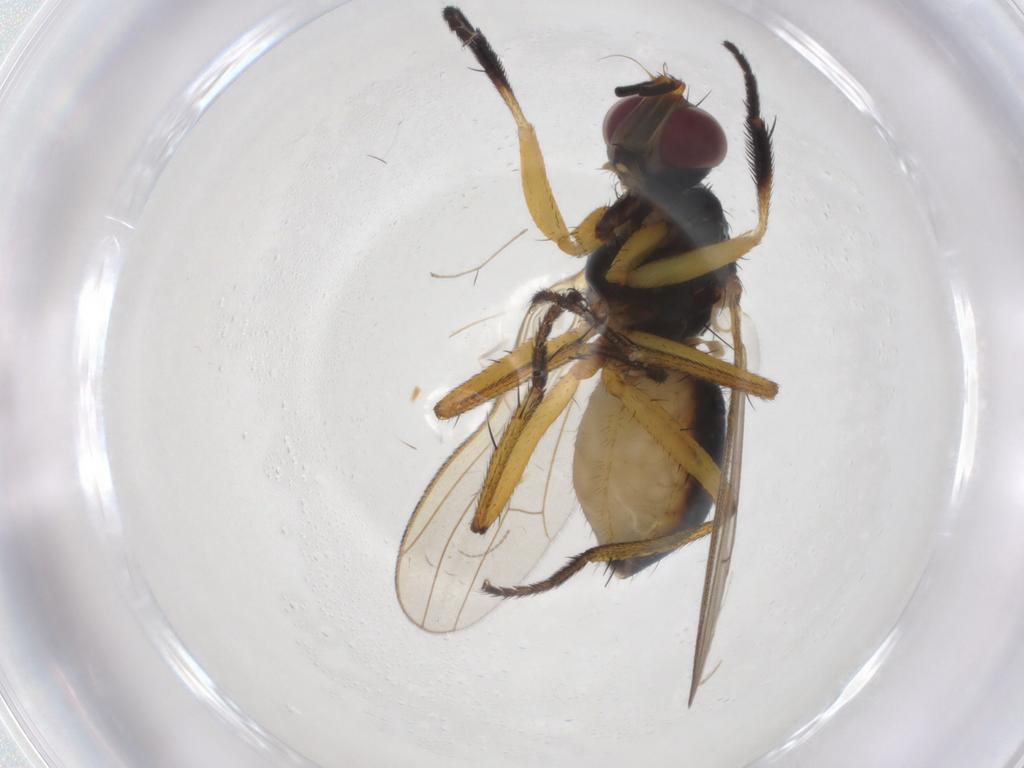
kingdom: Animalia
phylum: Arthropoda
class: Insecta
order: Diptera
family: Muscidae
